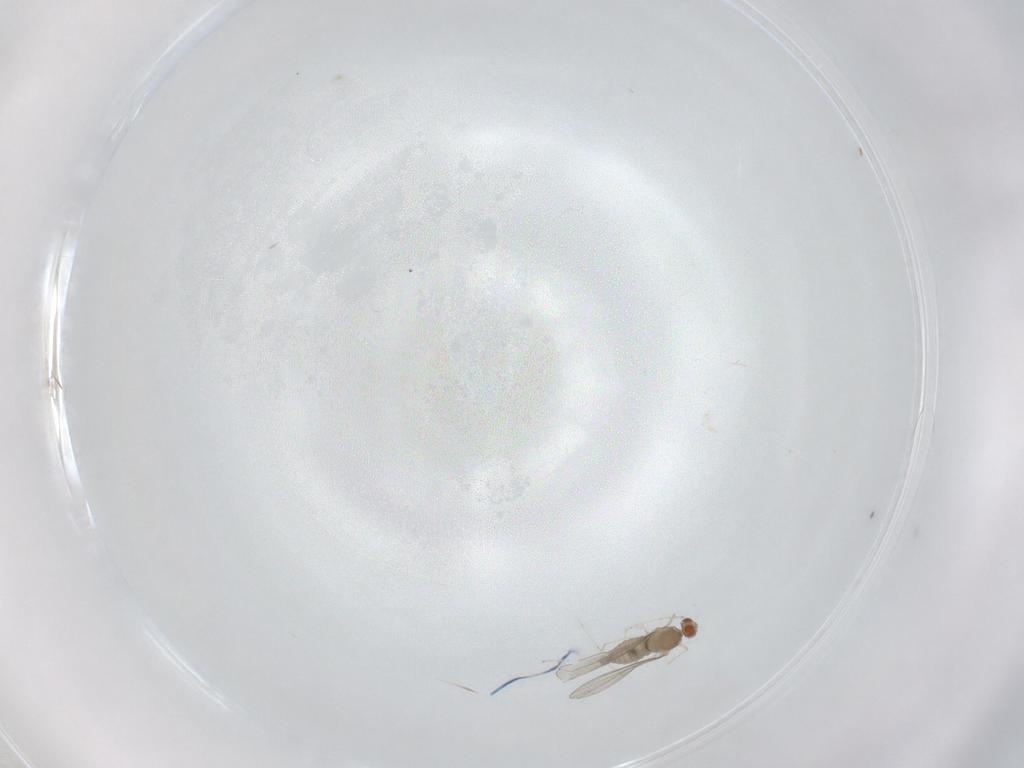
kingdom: Animalia
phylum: Arthropoda
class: Insecta
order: Diptera
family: Cecidomyiidae
